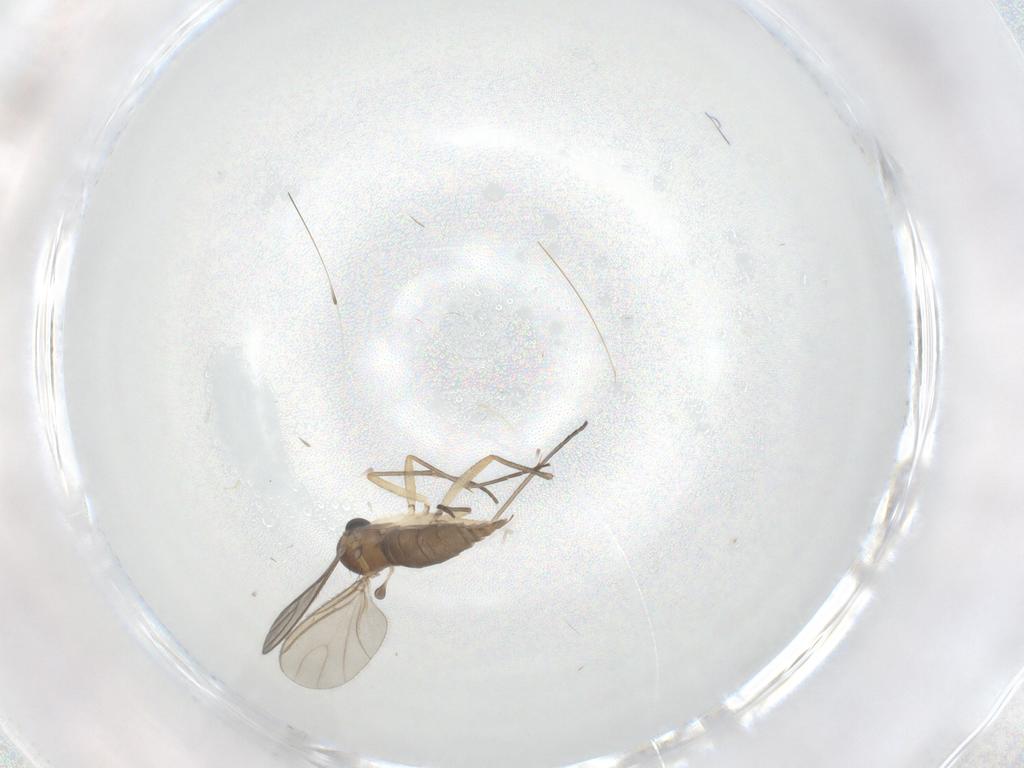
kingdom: Animalia
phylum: Arthropoda
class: Insecta
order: Diptera
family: Sciaridae
